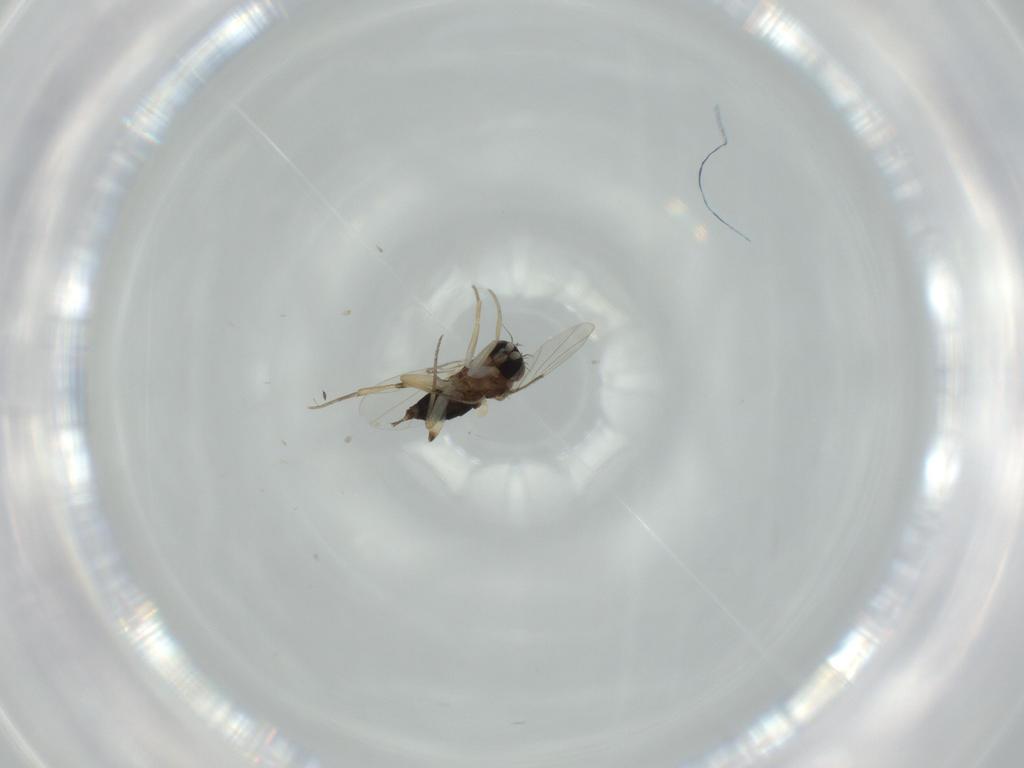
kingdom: Animalia
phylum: Arthropoda
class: Insecta
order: Diptera
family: Phoridae
